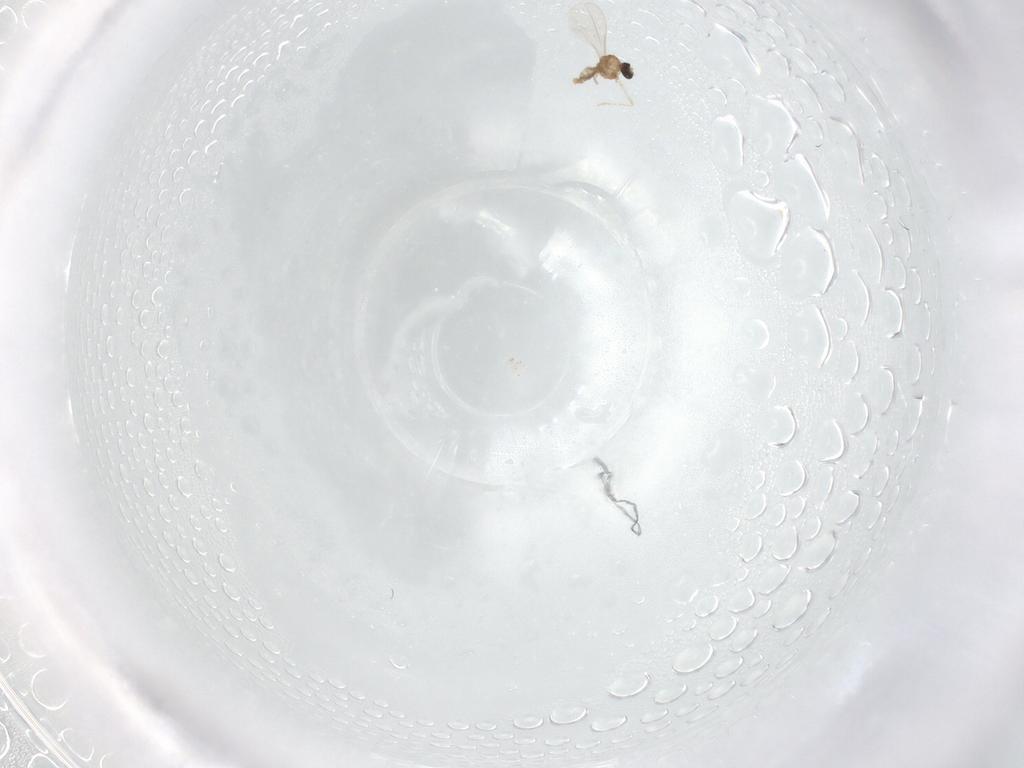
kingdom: Animalia
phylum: Arthropoda
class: Insecta
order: Diptera
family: Cecidomyiidae
